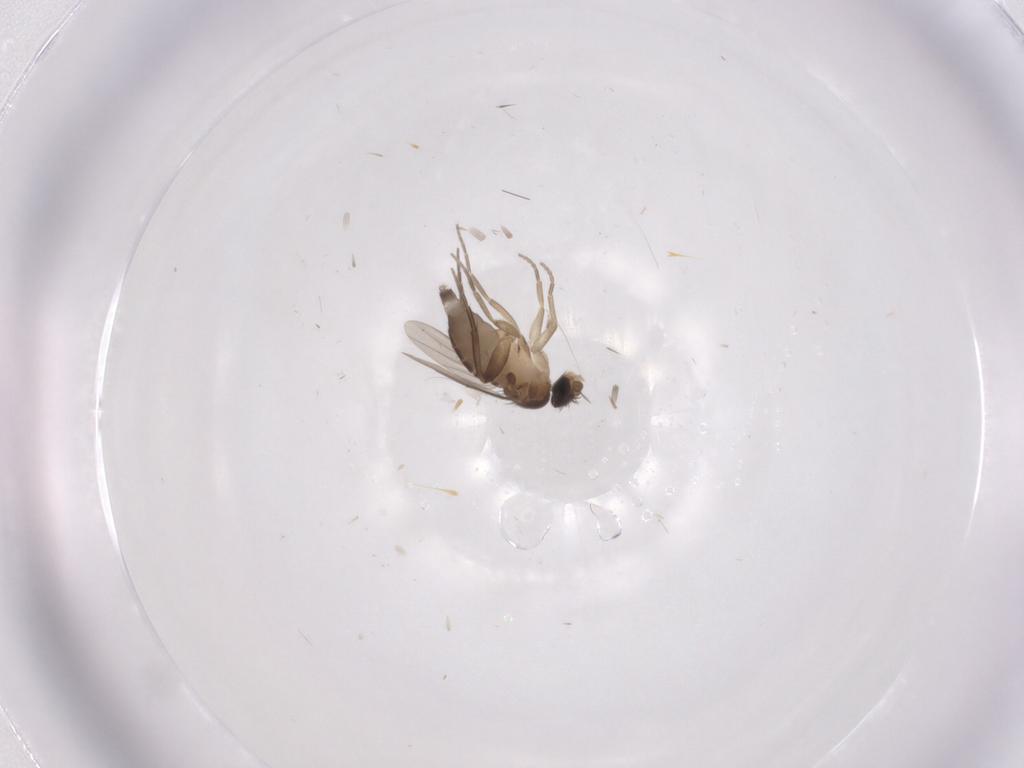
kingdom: Animalia
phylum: Arthropoda
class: Insecta
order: Diptera
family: Phoridae
